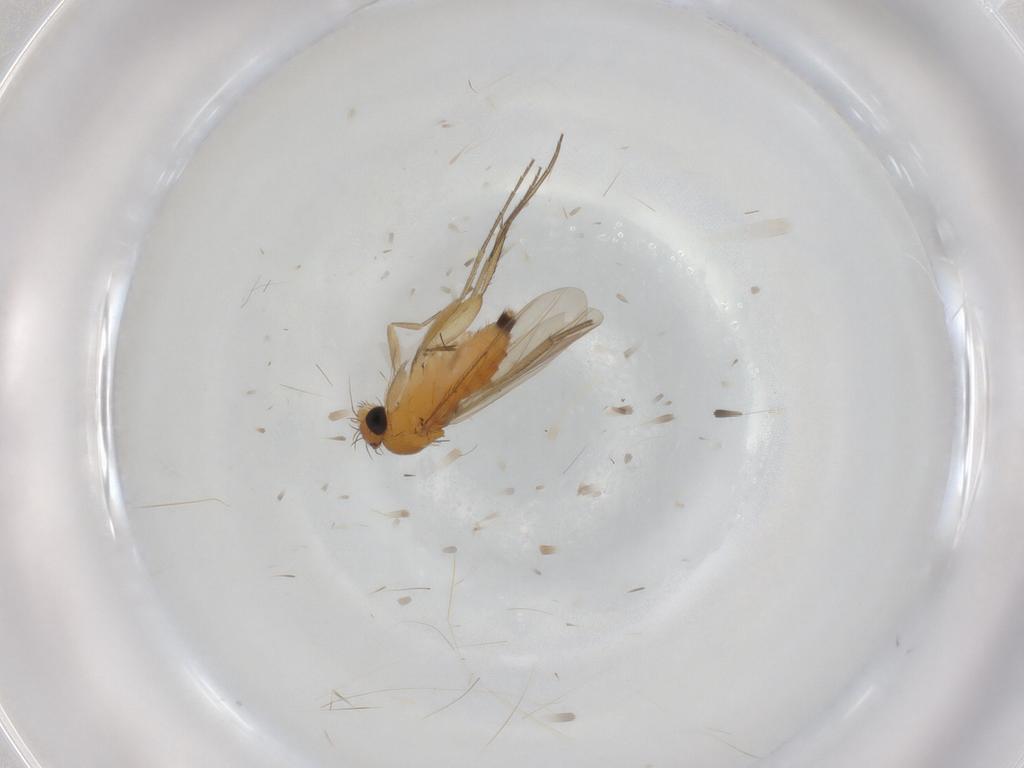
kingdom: Animalia
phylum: Arthropoda
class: Insecta
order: Diptera
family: Phoridae
